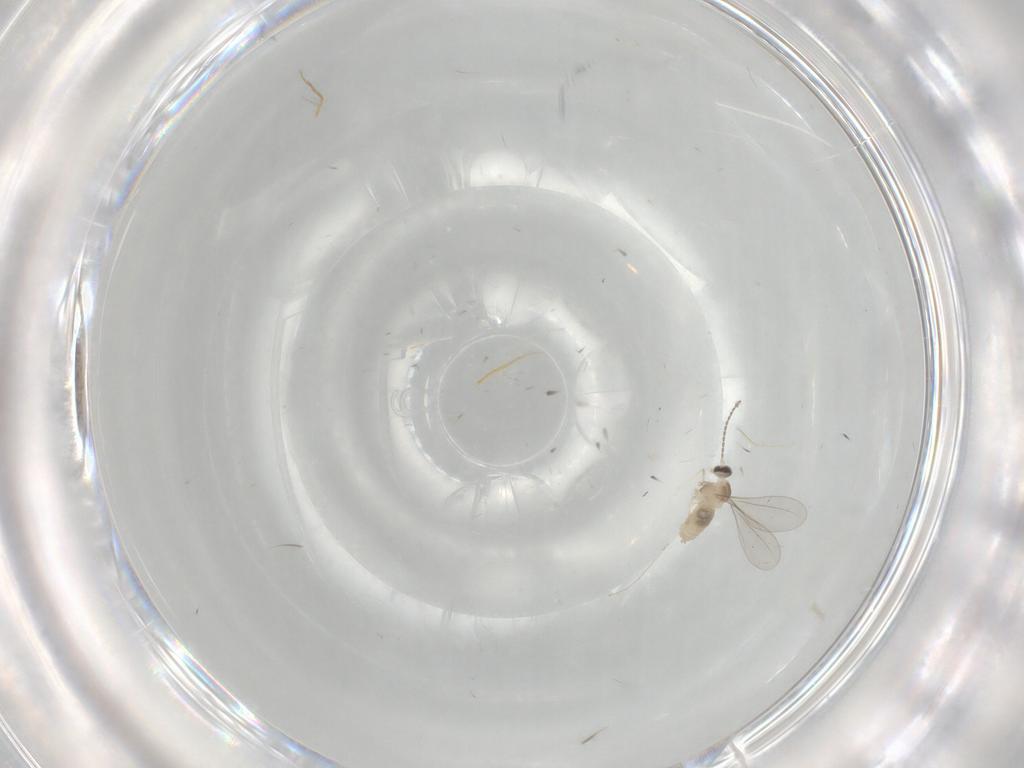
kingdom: Animalia
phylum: Arthropoda
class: Insecta
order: Diptera
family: Cecidomyiidae
